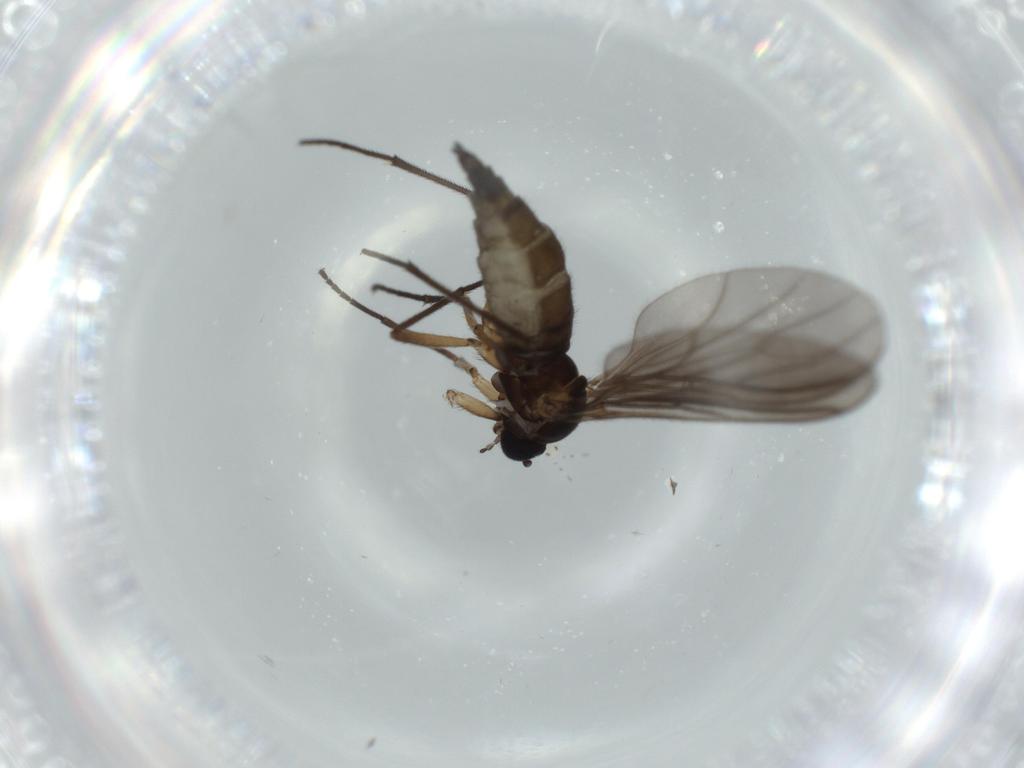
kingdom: Animalia
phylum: Arthropoda
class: Insecta
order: Diptera
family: Sciaridae
